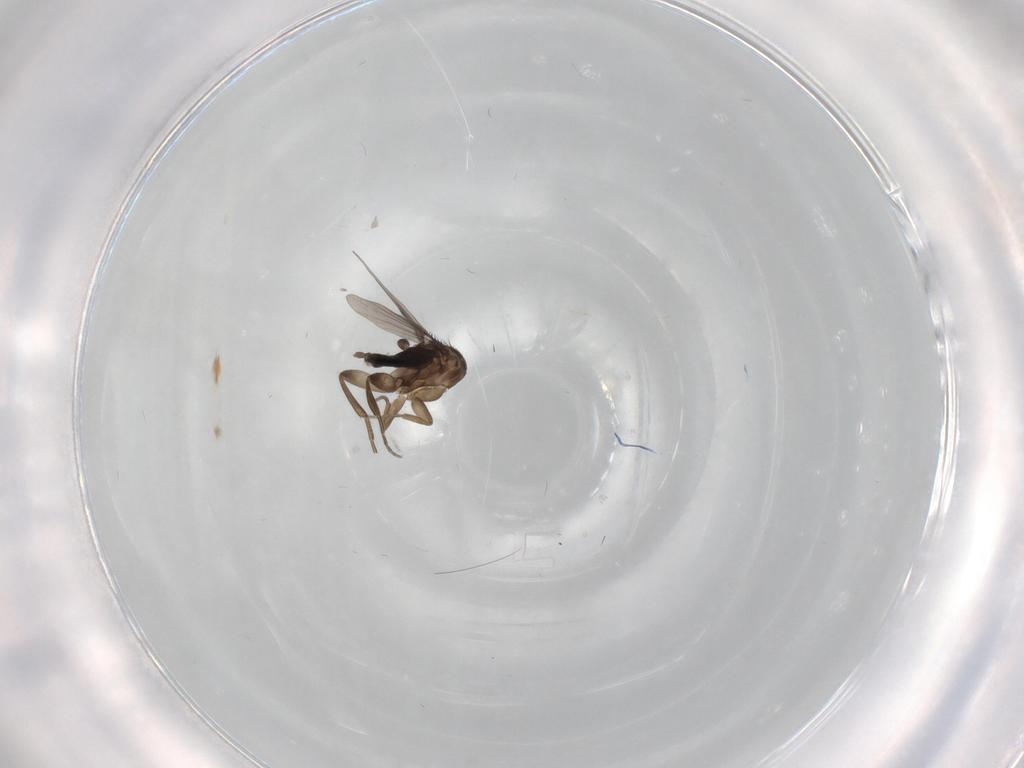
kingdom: Animalia
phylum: Arthropoda
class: Insecta
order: Diptera
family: Phoridae
